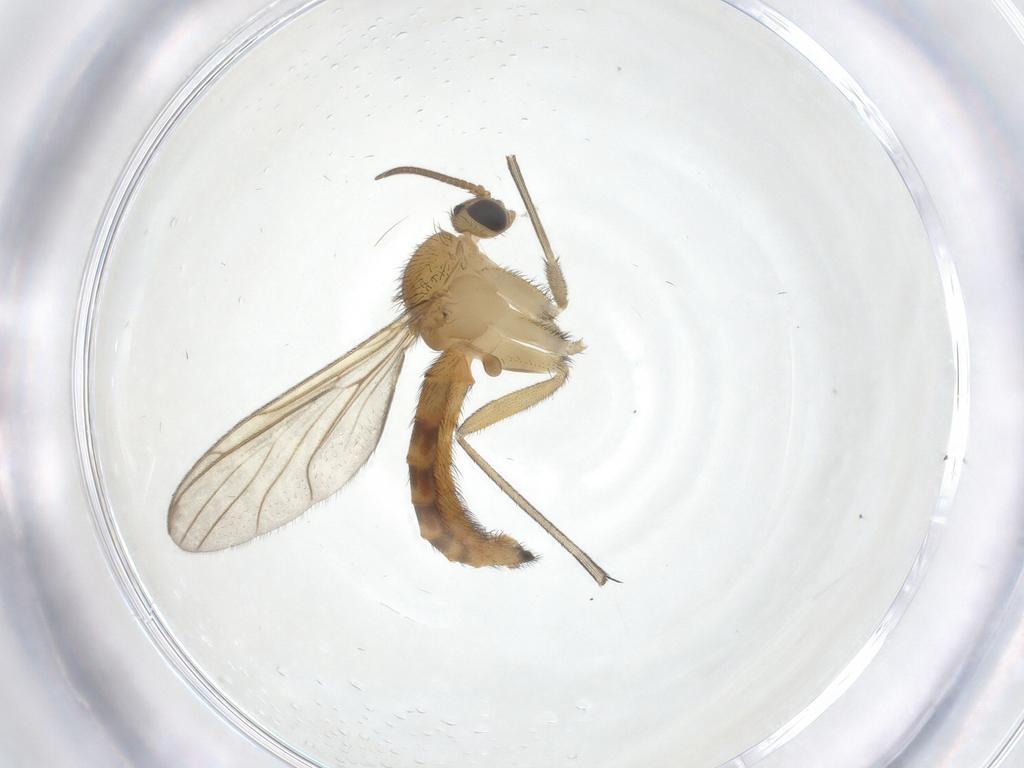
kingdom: Animalia
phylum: Arthropoda
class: Insecta
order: Diptera
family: Keroplatidae
